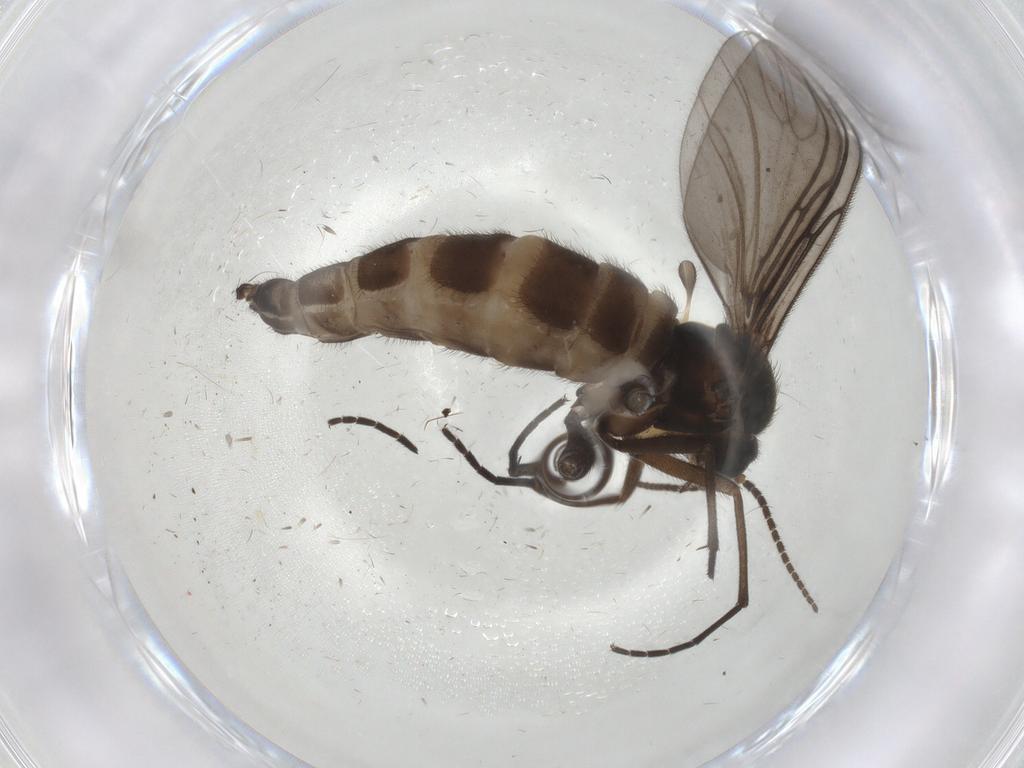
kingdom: Animalia
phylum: Arthropoda
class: Insecta
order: Diptera
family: Sciaridae
